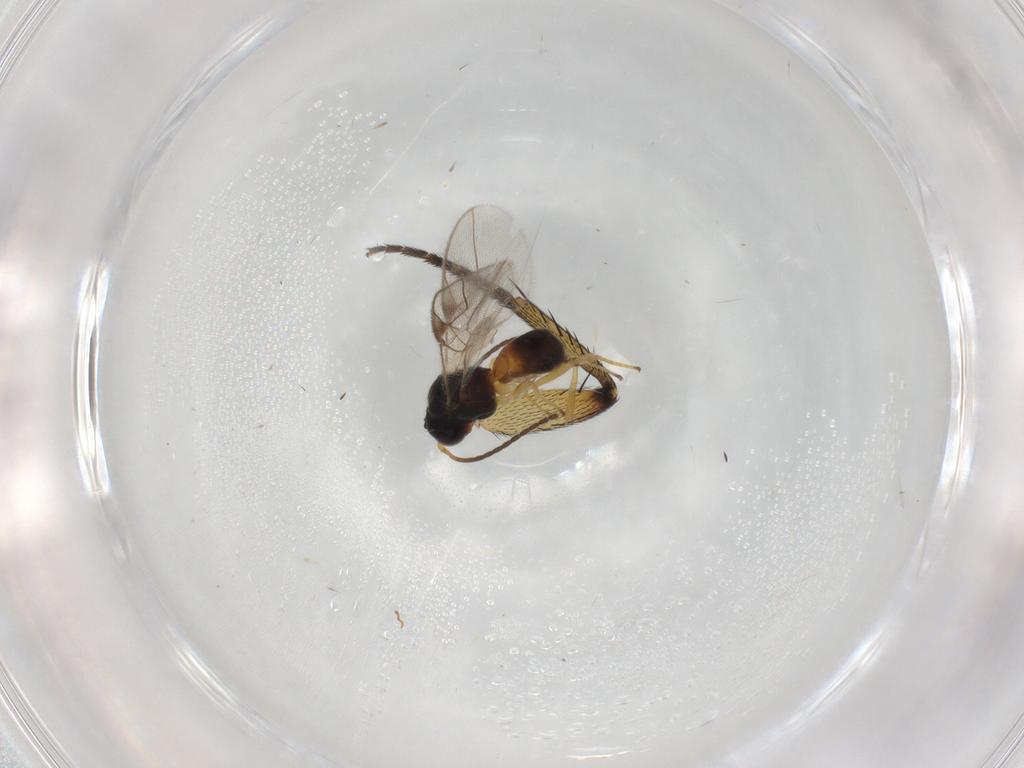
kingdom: Animalia
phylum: Arthropoda
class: Insecta
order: Hymenoptera
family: Braconidae
